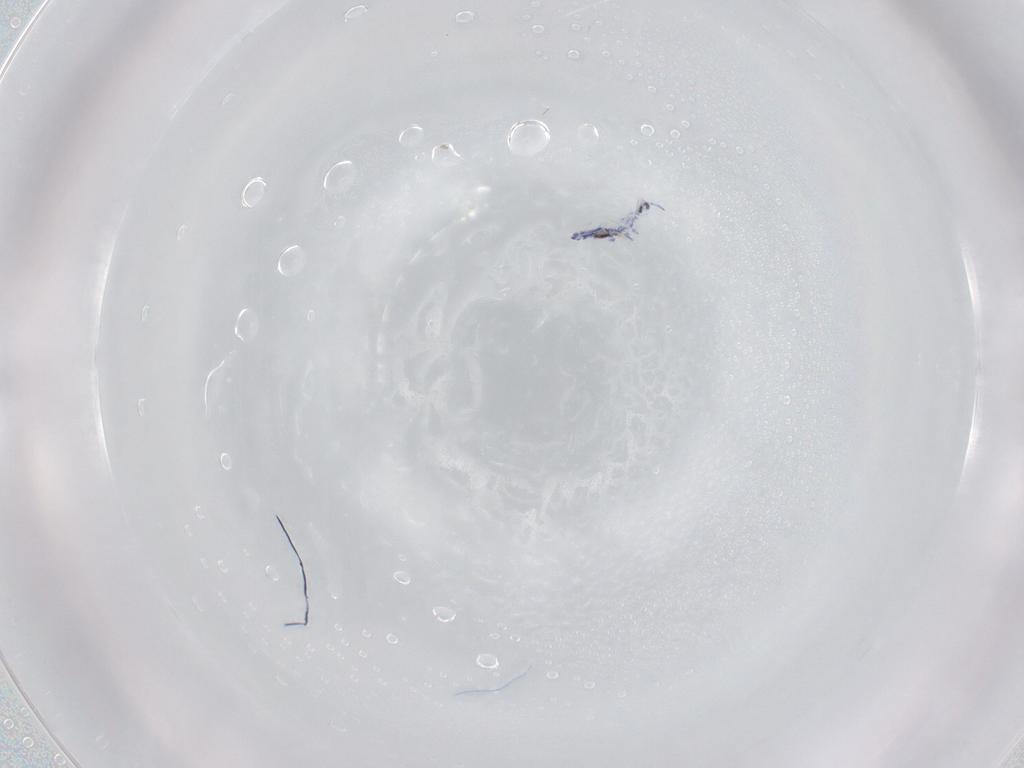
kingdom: Animalia
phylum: Arthropoda
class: Collembola
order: Entomobryomorpha
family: Entomobryidae
